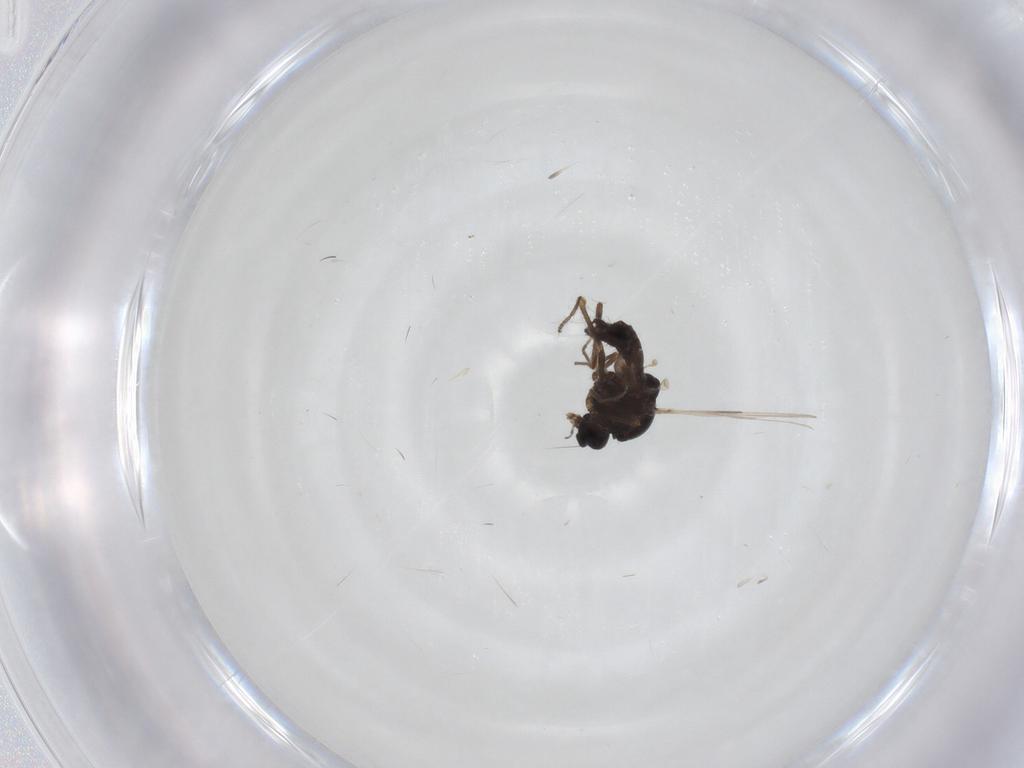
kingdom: Animalia
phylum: Arthropoda
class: Insecta
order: Diptera
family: Ceratopogonidae
